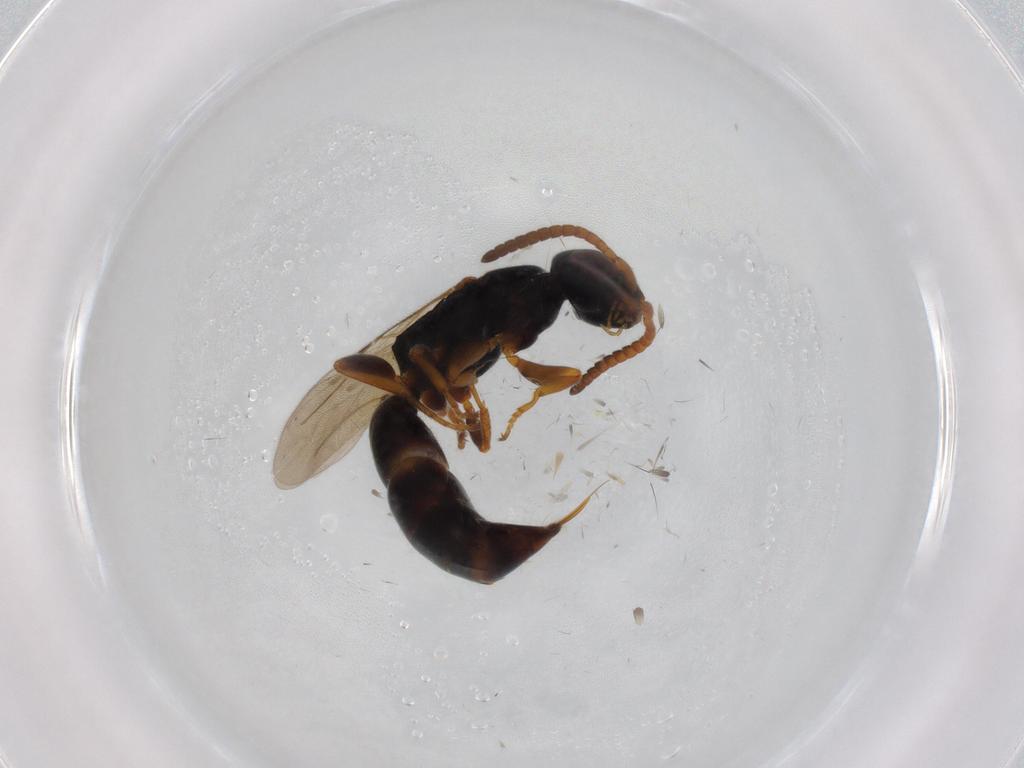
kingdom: Animalia
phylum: Arthropoda
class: Insecta
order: Hymenoptera
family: Bethylidae
